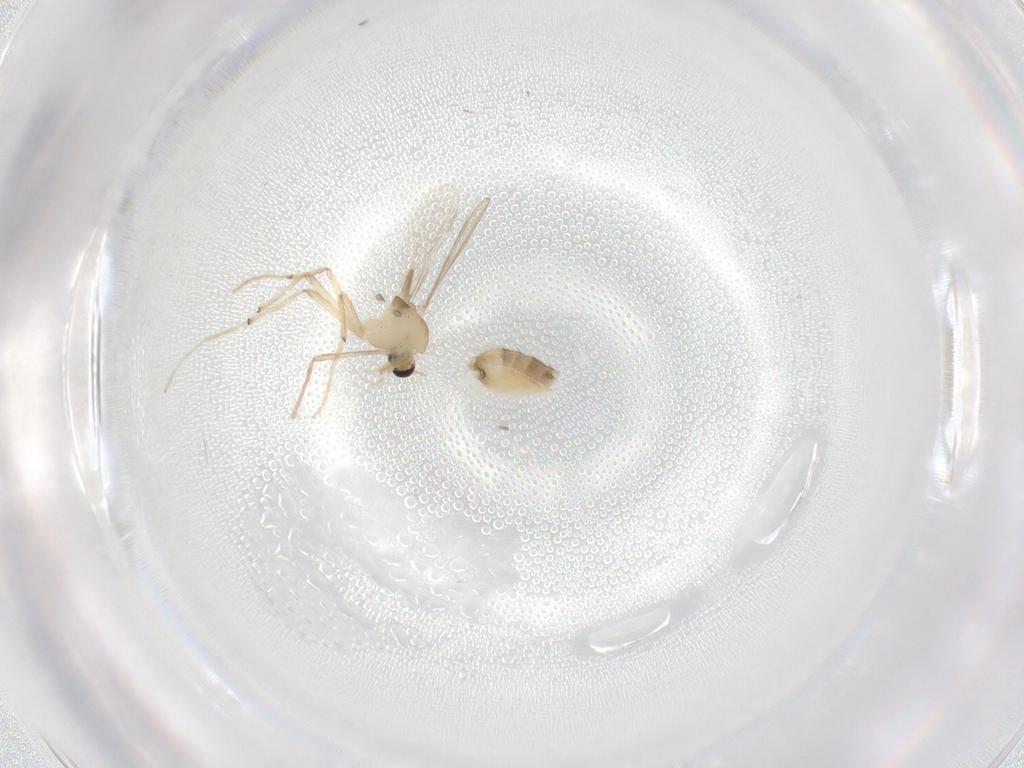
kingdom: Animalia
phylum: Arthropoda
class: Insecta
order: Diptera
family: Chironomidae
